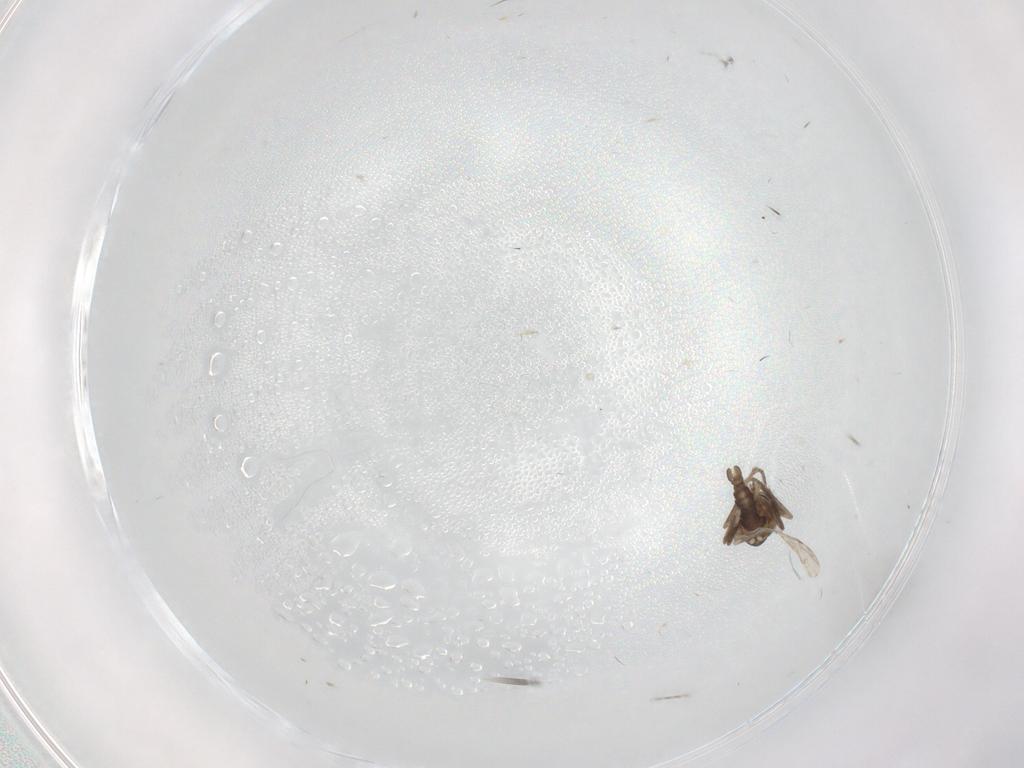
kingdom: Animalia
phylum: Arthropoda
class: Insecta
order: Diptera
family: Ceratopogonidae
